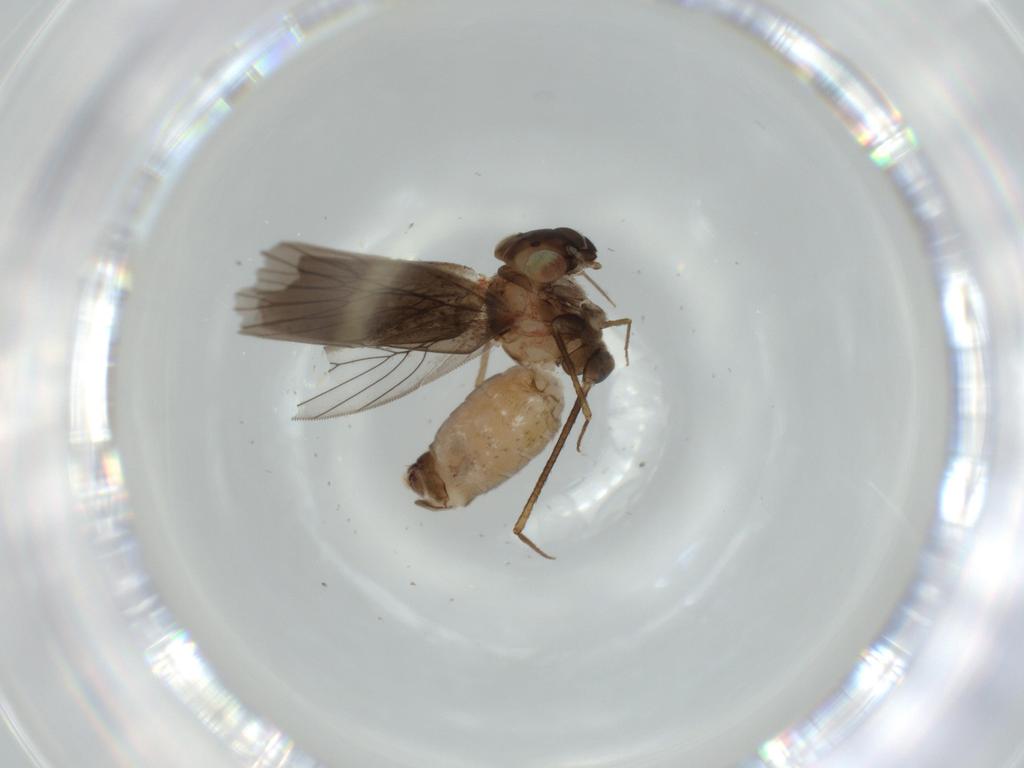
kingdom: Animalia
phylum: Arthropoda
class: Insecta
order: Psocodea
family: Lepidopsocidae
